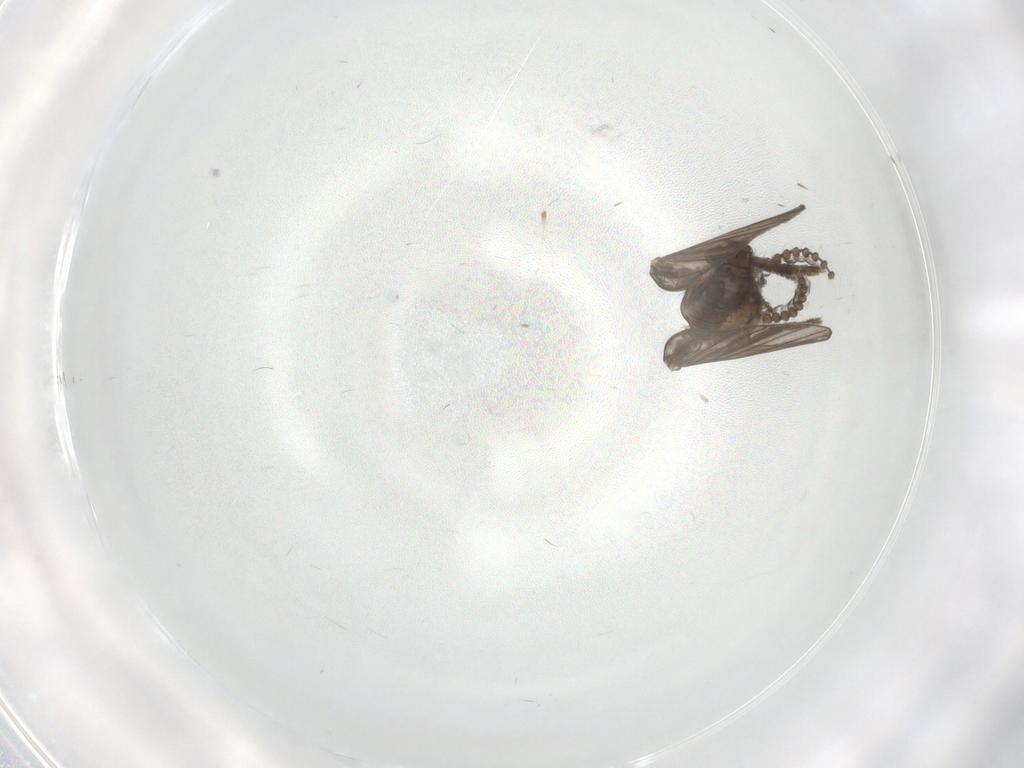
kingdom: Animalia
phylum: Arthropoda
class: Insecta
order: Diptera
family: Psychodidae
